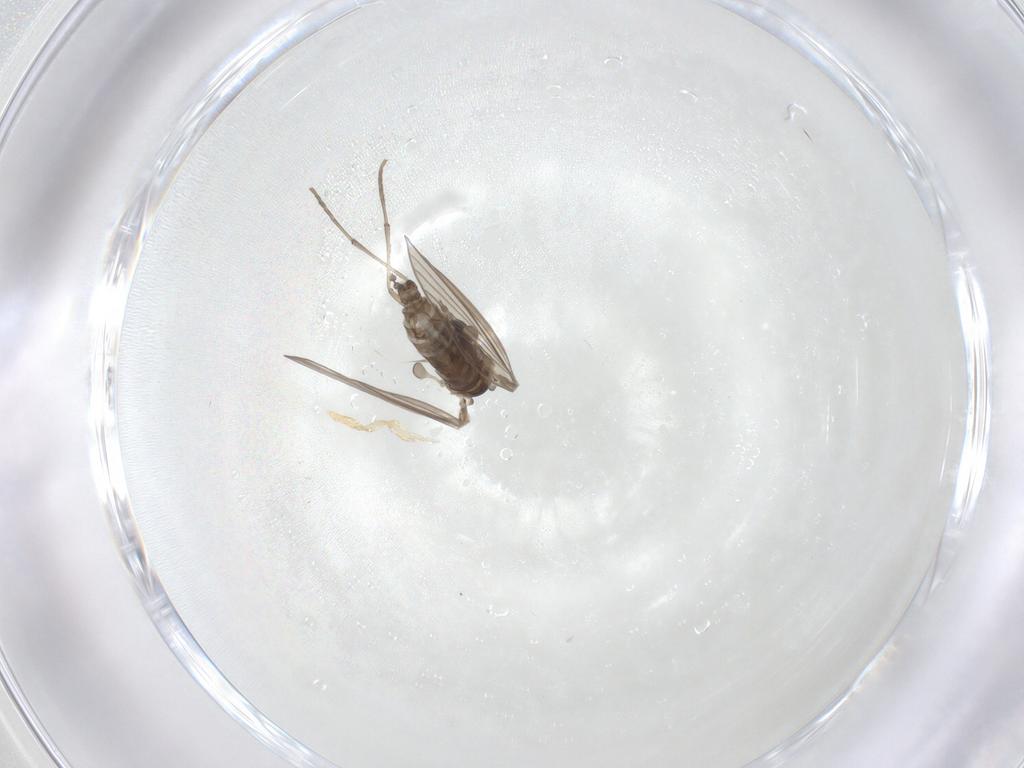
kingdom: Animalia
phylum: Arthropoda
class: Insecta
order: Diptera
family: Psychodidae
